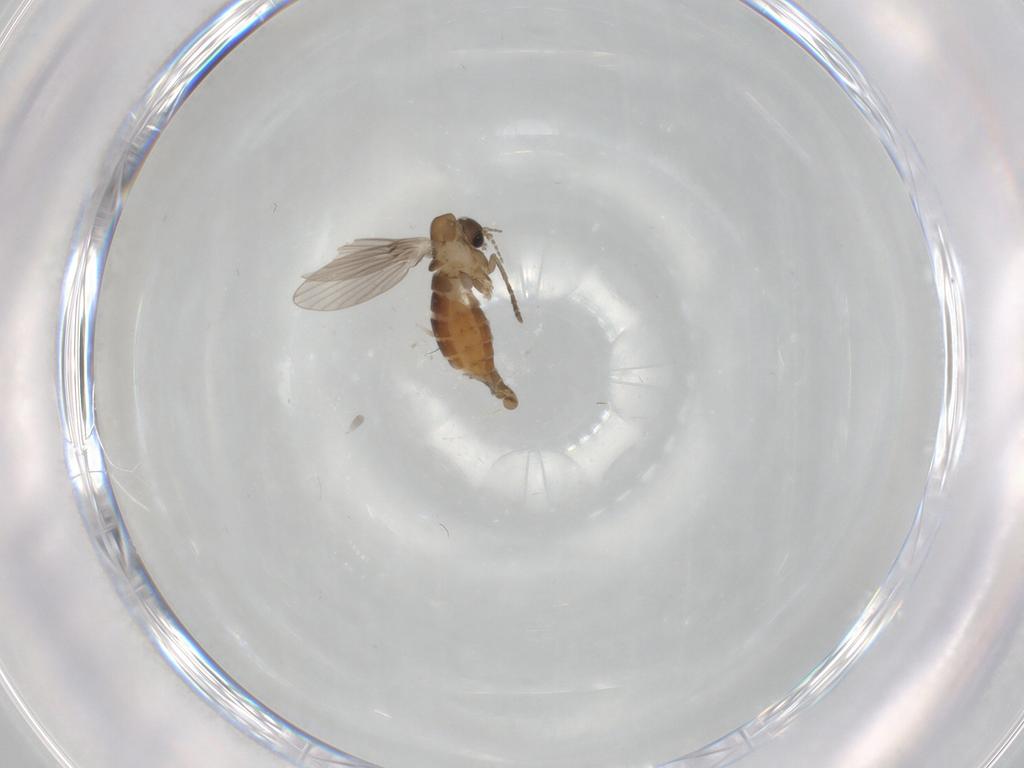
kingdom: Animalia
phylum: Arthropoda
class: Insecta
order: Diptera
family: Psychodidae
